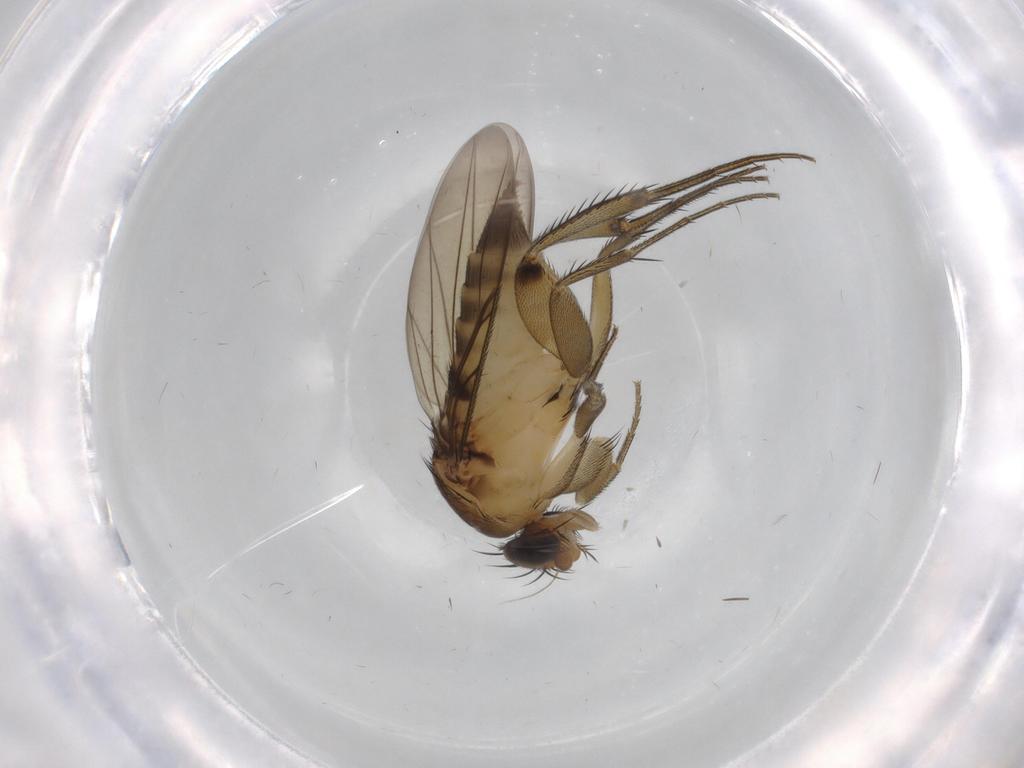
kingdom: Animalia
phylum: Arthropoda
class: Insecta
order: Diptera
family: Phoridae
